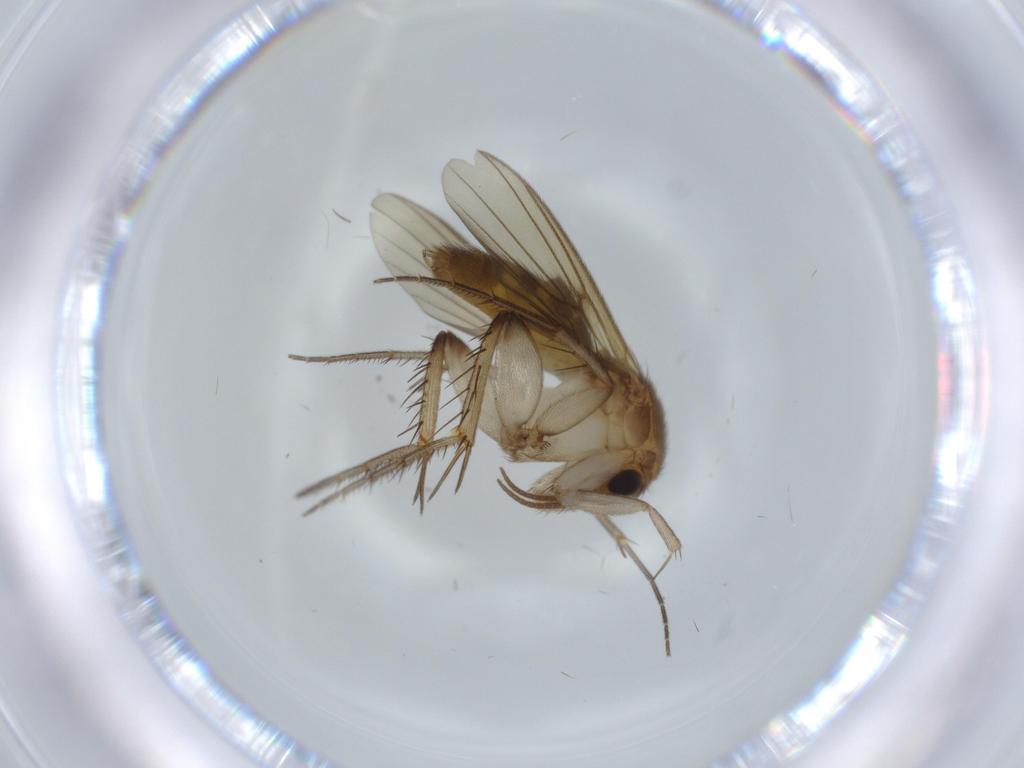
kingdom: Animalia
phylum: Arthropoda
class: Insecta
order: Diptera
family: Mycetophilidae
